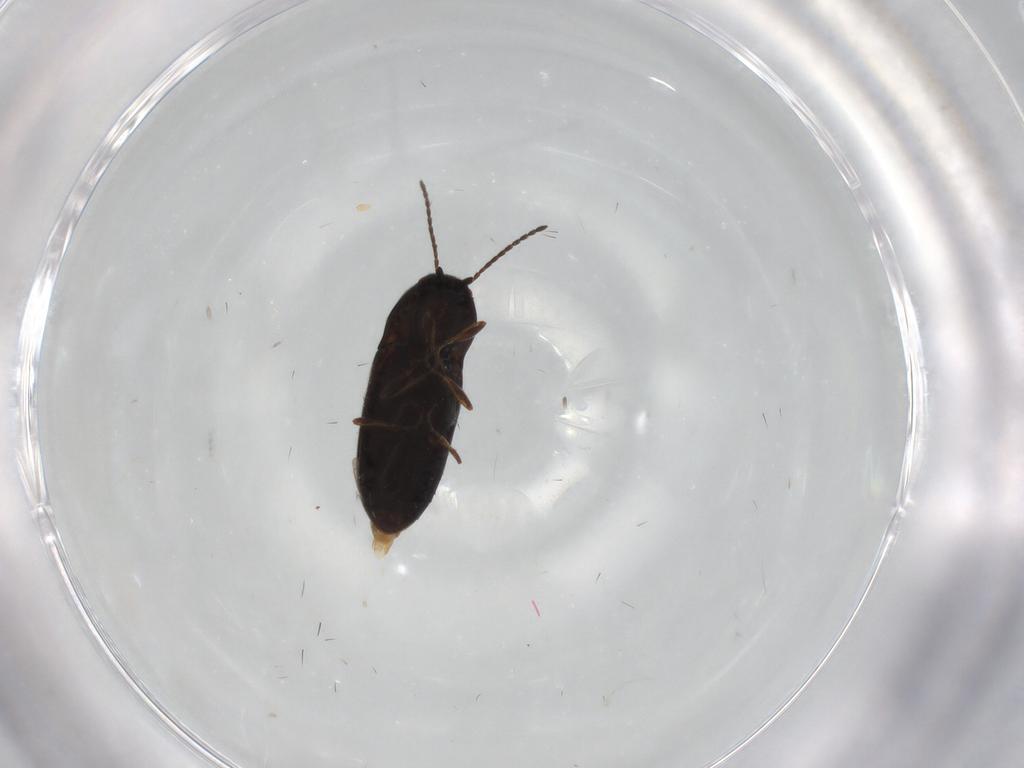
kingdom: Animalia
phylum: Arthropoda
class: Insecta
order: Coleoptera
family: Elateridae
